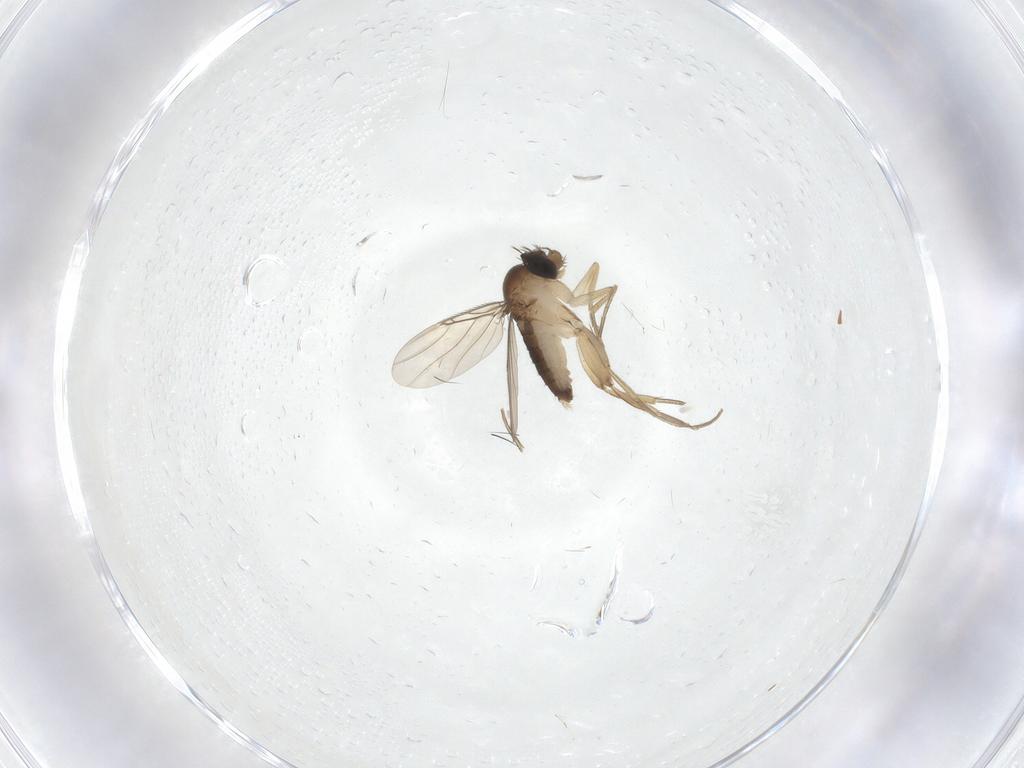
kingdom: Animalia
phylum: Arthropoda
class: Insecta
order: Diptera
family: Phoridae
